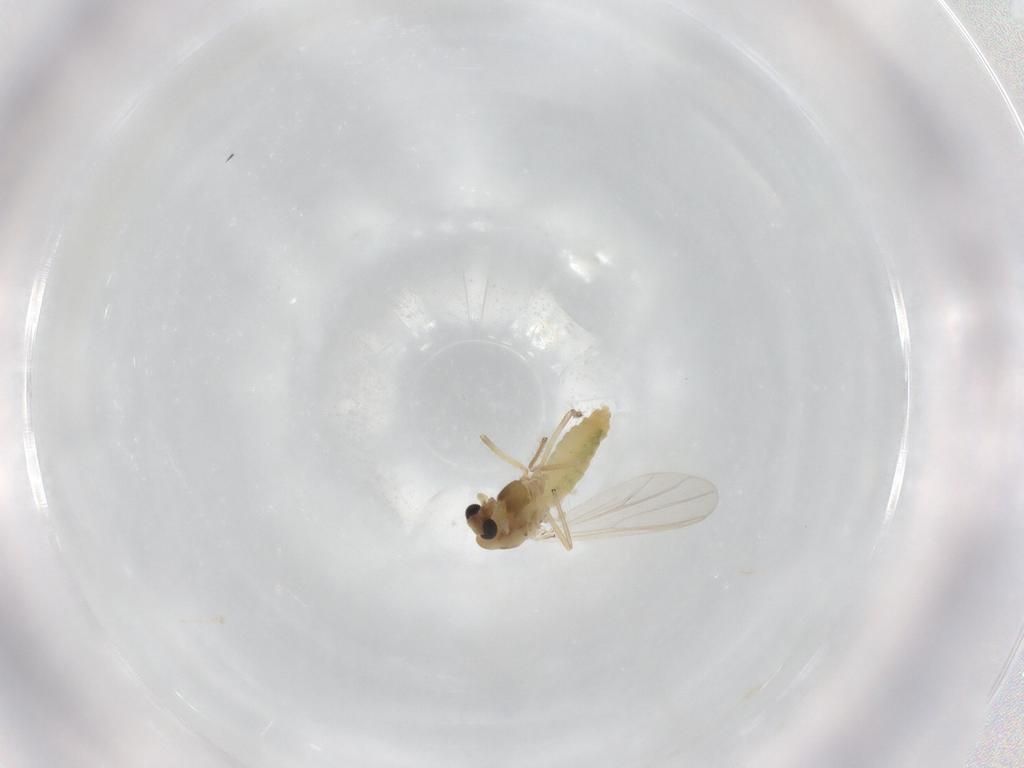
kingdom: Animalia
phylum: Arthropoda
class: Insecta
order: Diptera
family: Chironomidae
